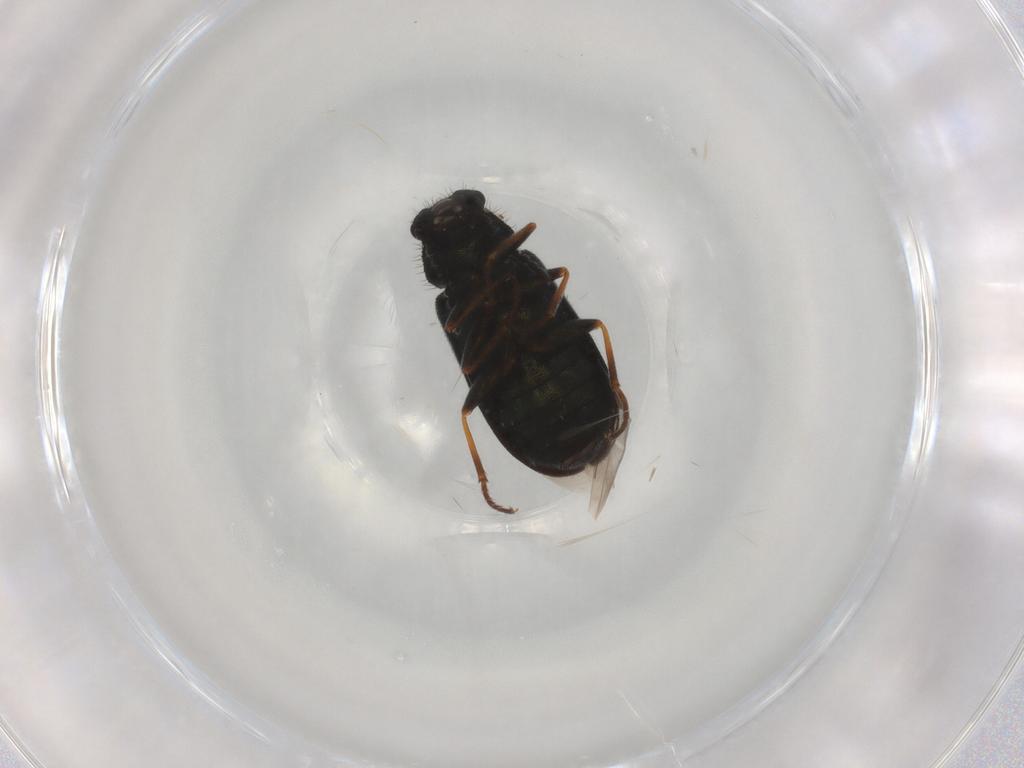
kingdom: Animalia
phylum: Arthropoda
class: Insecta
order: Coleoptera
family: Melyridae
